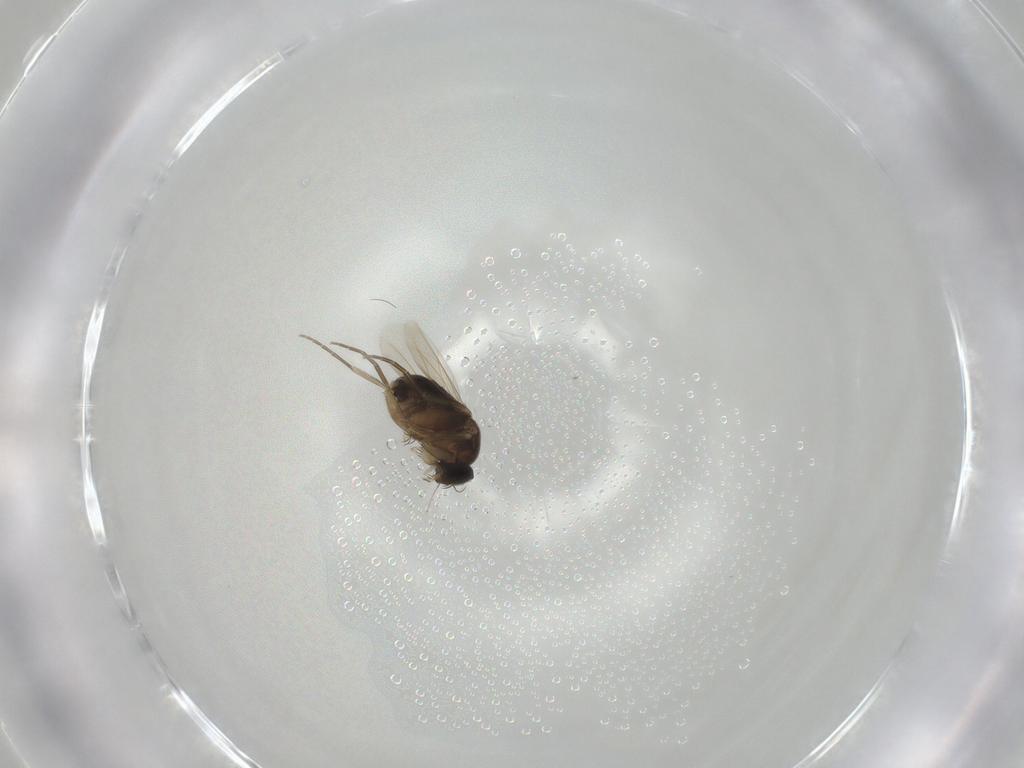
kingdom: Animalia
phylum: Arthropoda
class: Insecta
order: Diptera
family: Phoridae
